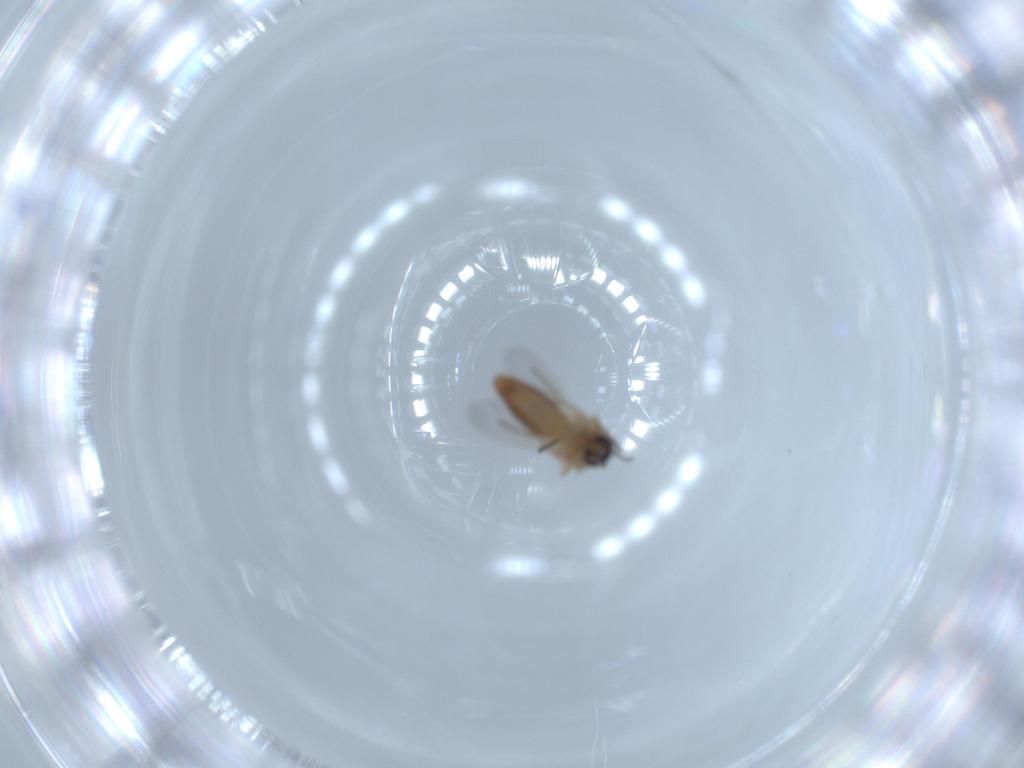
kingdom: Animalia
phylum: Arthropoda
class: Insecta
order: Diptera
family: Ceratopogonidae
